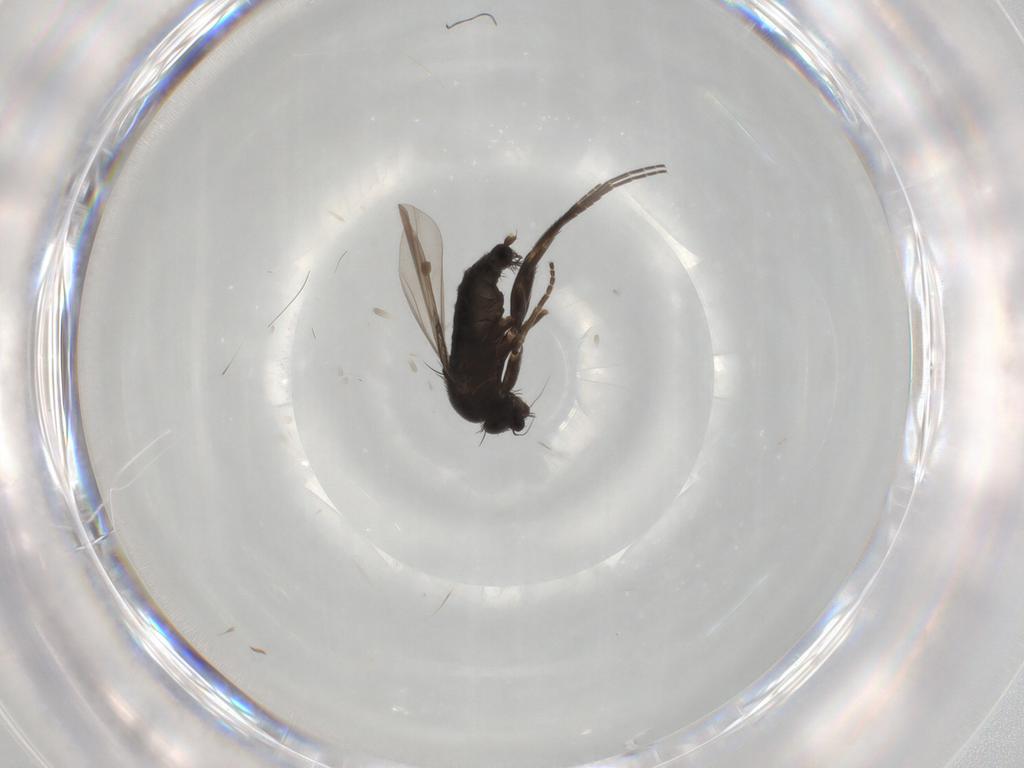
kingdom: Animalia
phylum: Arthropoda
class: Insecta
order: Diptera
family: Phoridae
